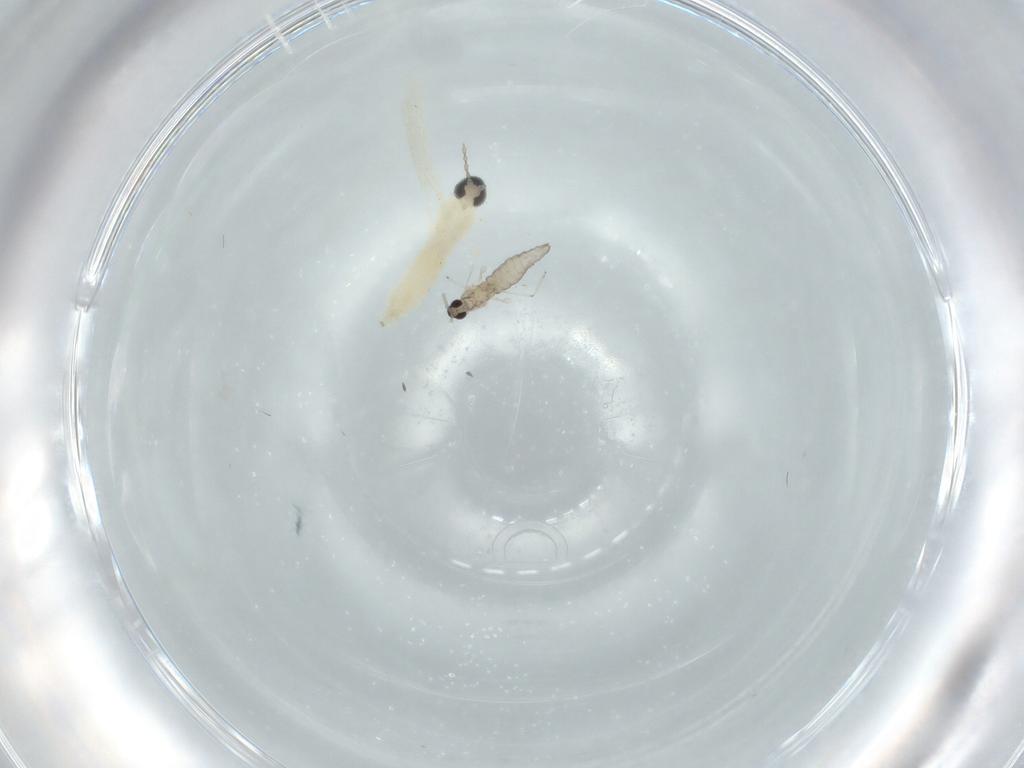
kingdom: Animalia
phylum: Arthropoda
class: Insecta
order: Diptera
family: Cecidomyiidae
